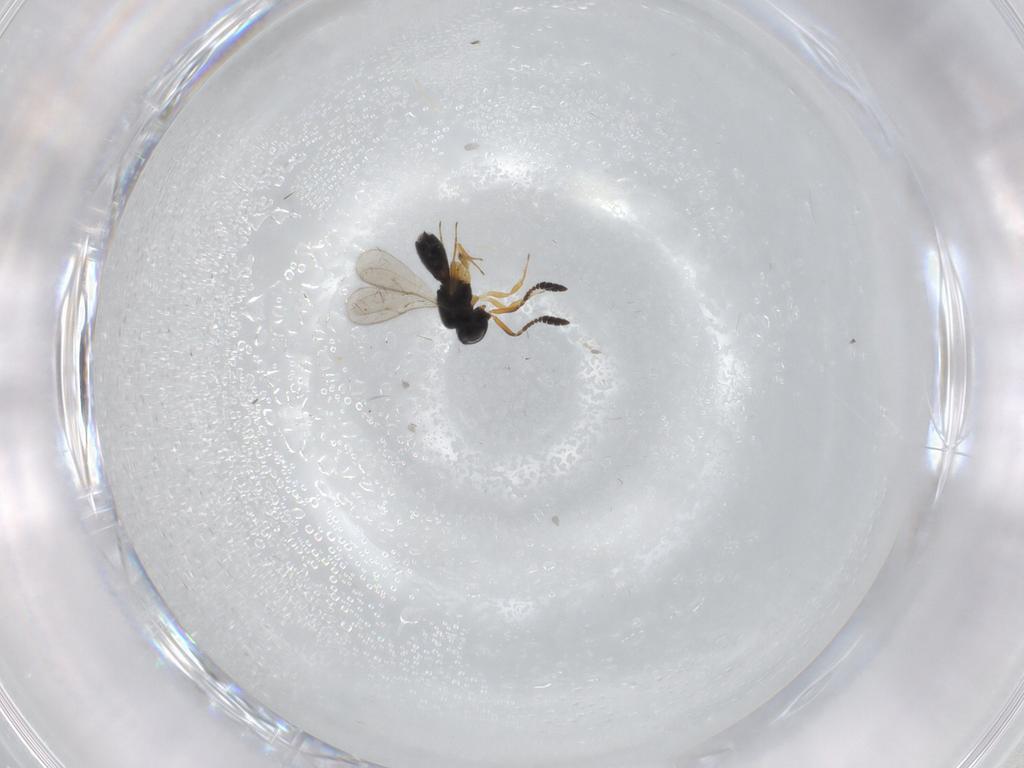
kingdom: Animalia
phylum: Arthropoda
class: Insecta
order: Hymenoptera
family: Scelionidae
